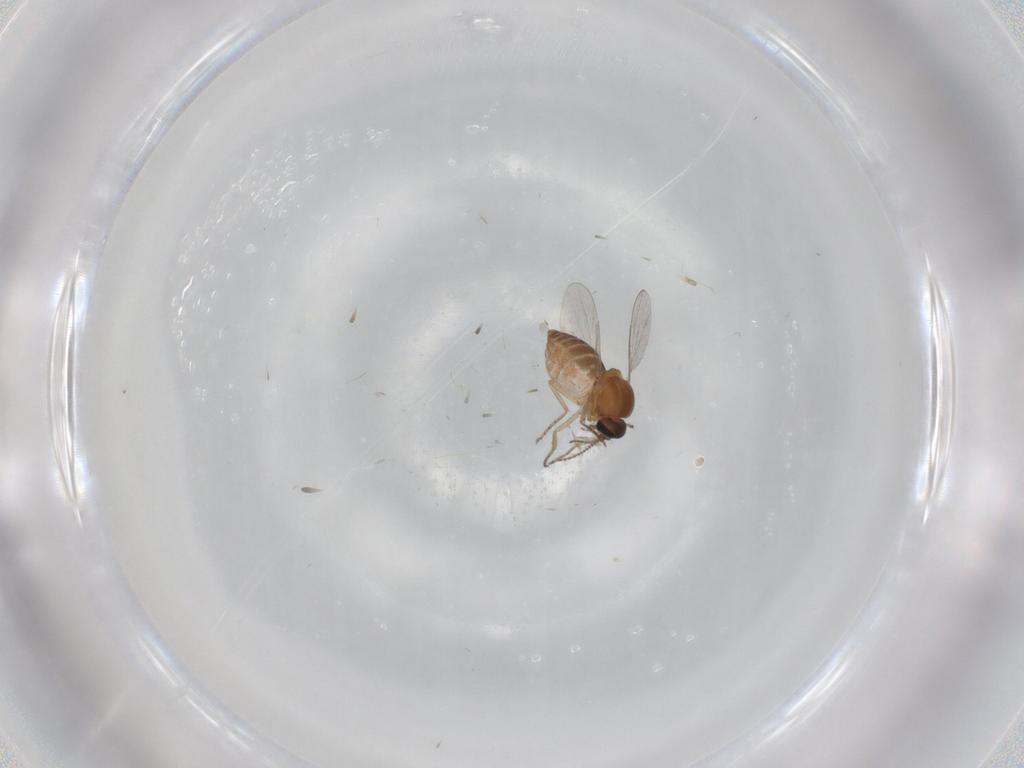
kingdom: Animalia
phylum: Arthropoda
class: Insecta
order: Diptera
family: Ceratopogonidae
